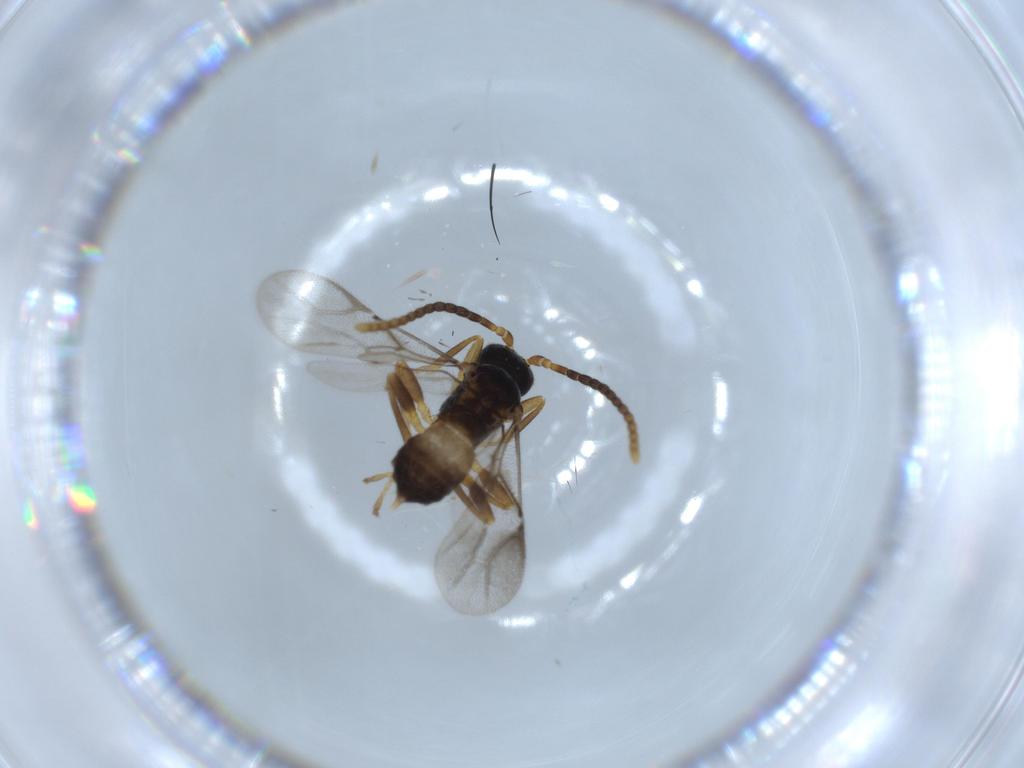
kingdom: Animalia
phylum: Arthropoda
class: Insecta
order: Hymenoptera
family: Braconidae
